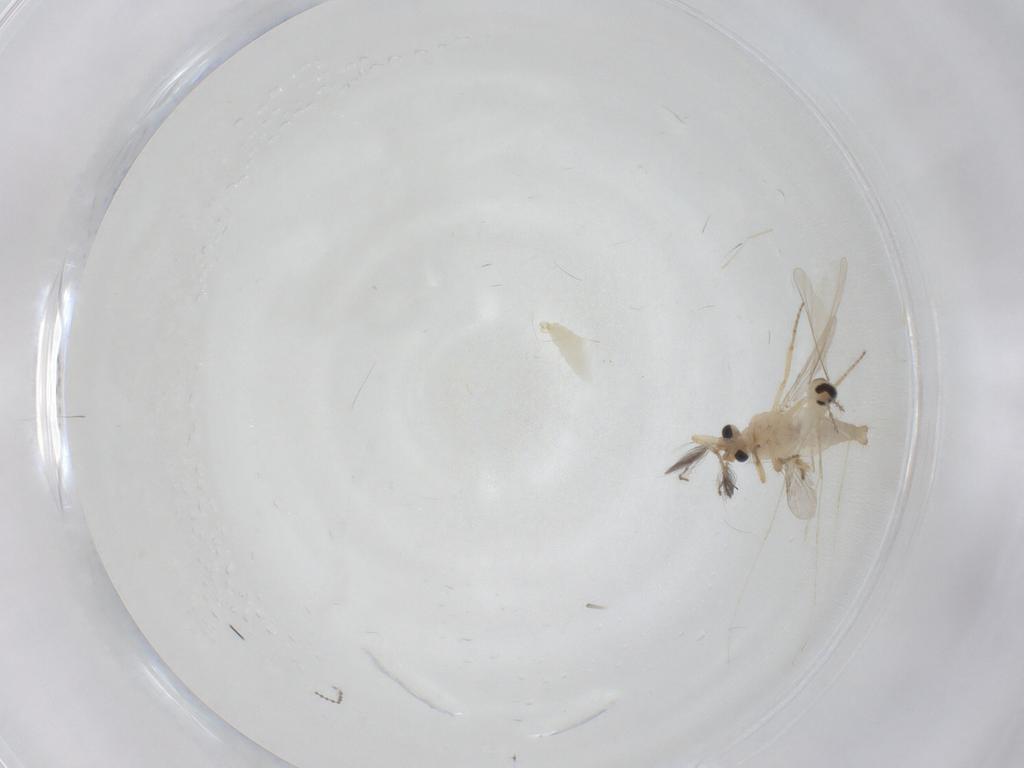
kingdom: Animalia
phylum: Arthropoda
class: Insecta
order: Diptera
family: Ceratopogonidae
